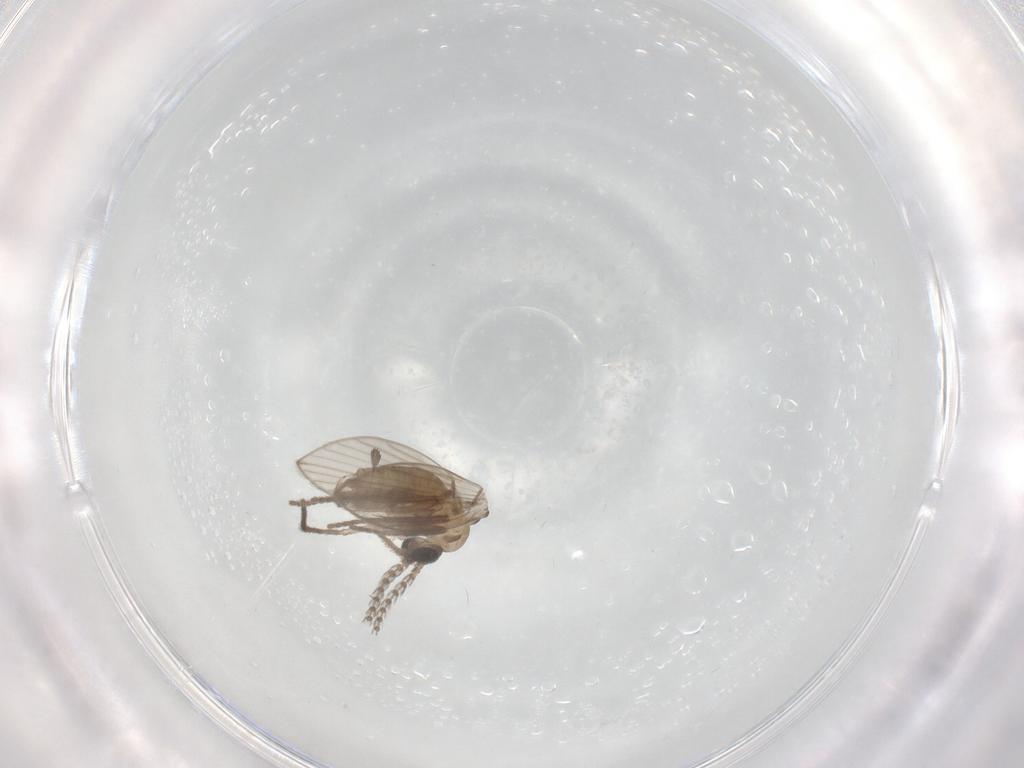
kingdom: Animalia
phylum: Arthropoda
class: Insecta
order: Diptera
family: Psychodidae
